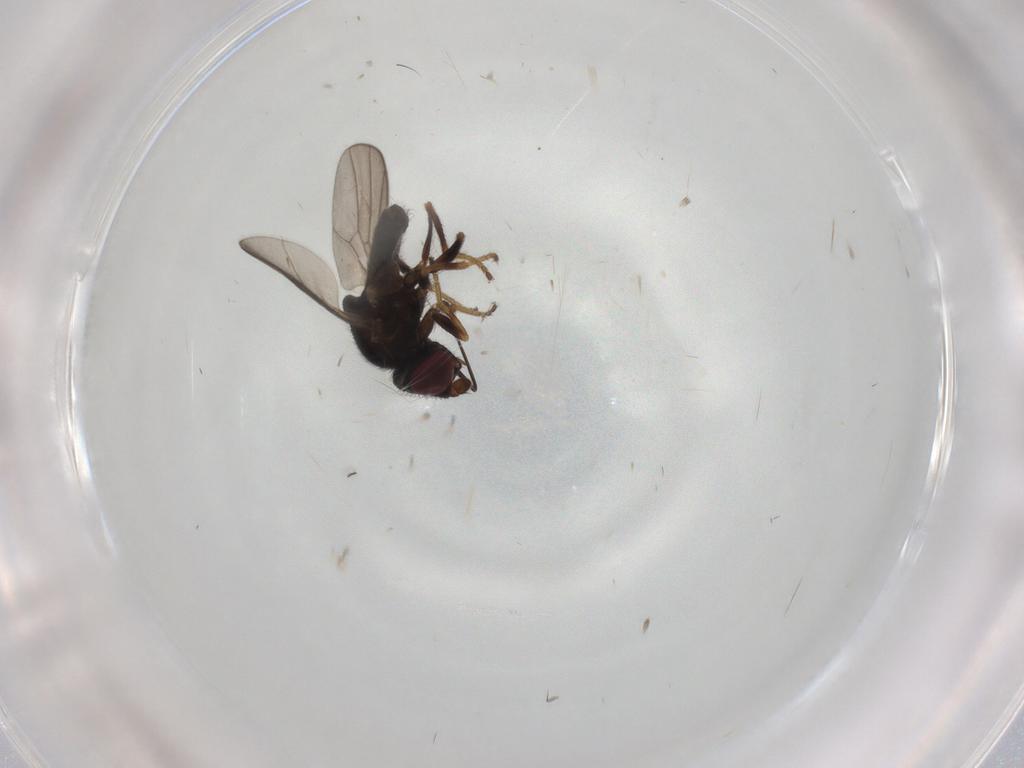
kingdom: Animalia
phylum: Arthropoda
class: Insecta
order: Diptera
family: Chloropidae
